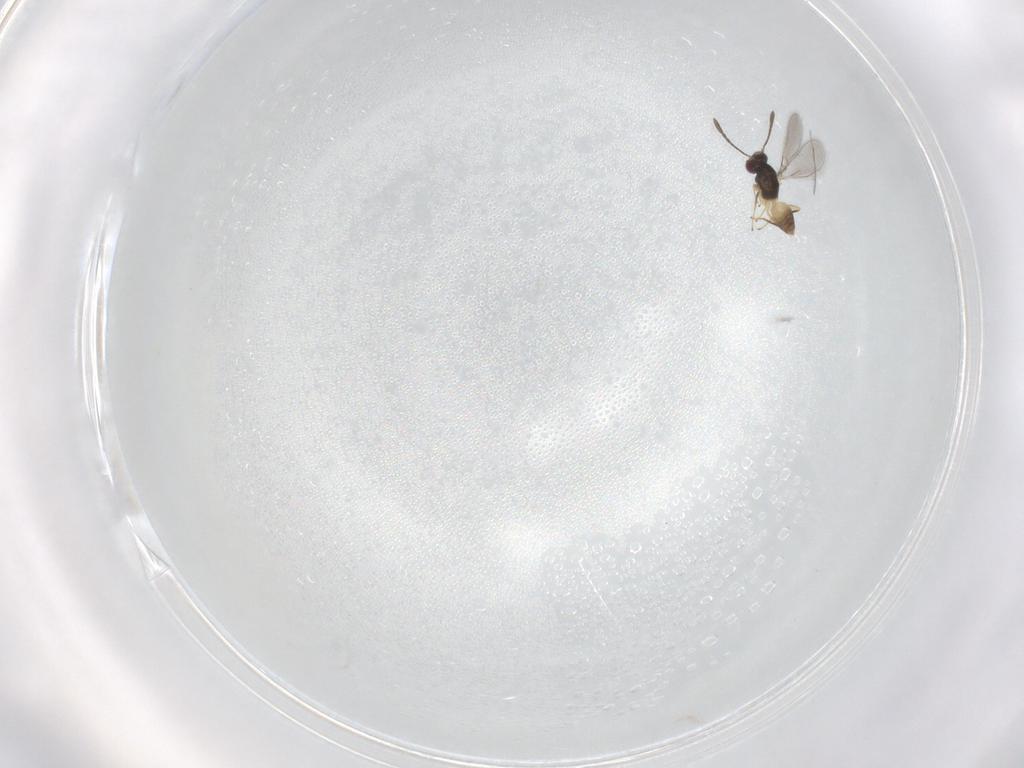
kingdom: Animalia
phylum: Arthropoda
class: Insecta
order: Hymenoptera
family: Mymaridae
